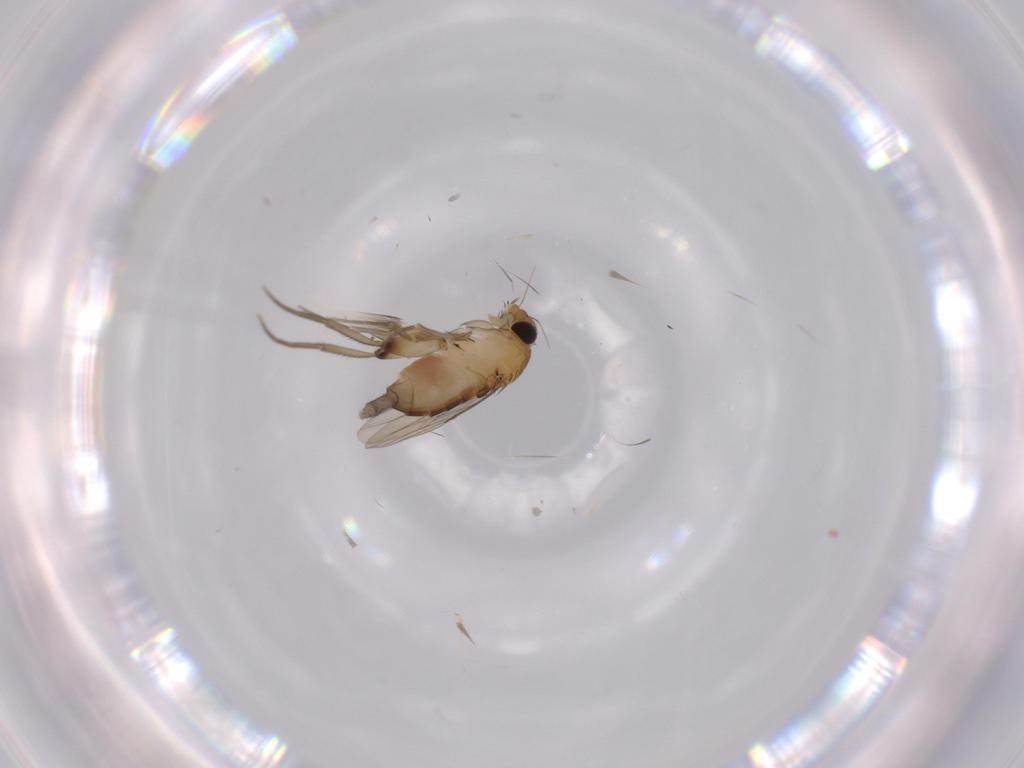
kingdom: Animalia
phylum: Arthropoda
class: Insecta
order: Diptera
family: Phoridae
